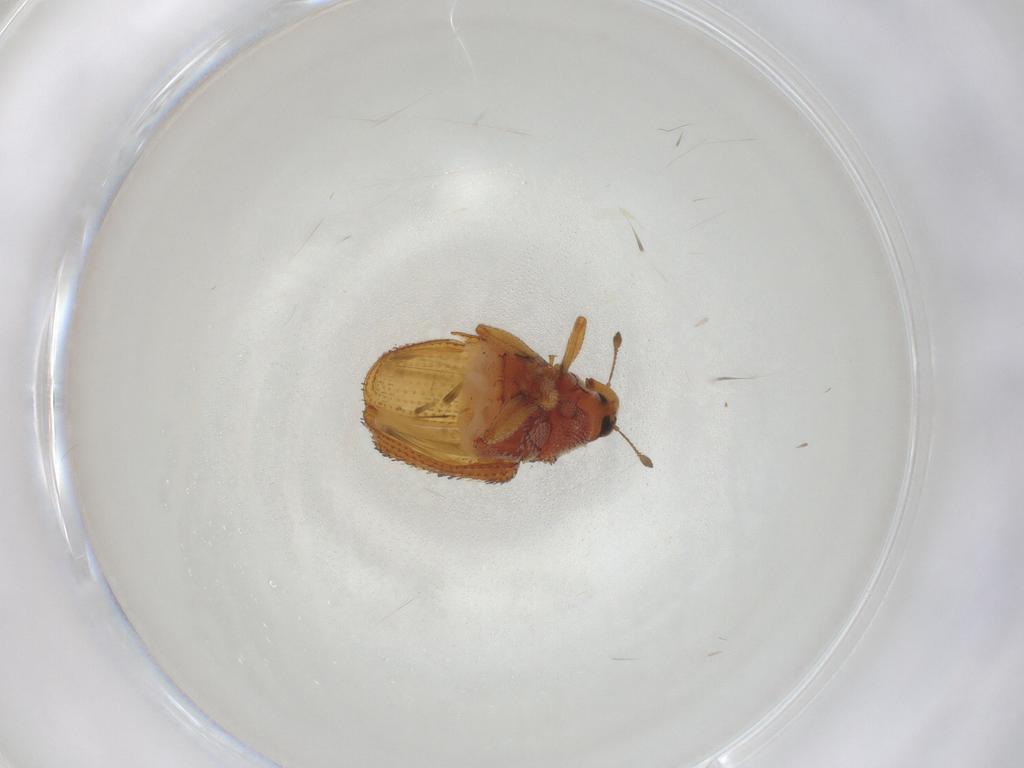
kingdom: Animalia
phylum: Arthropoda
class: Insecta
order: Coleoptera
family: Curculionidae
